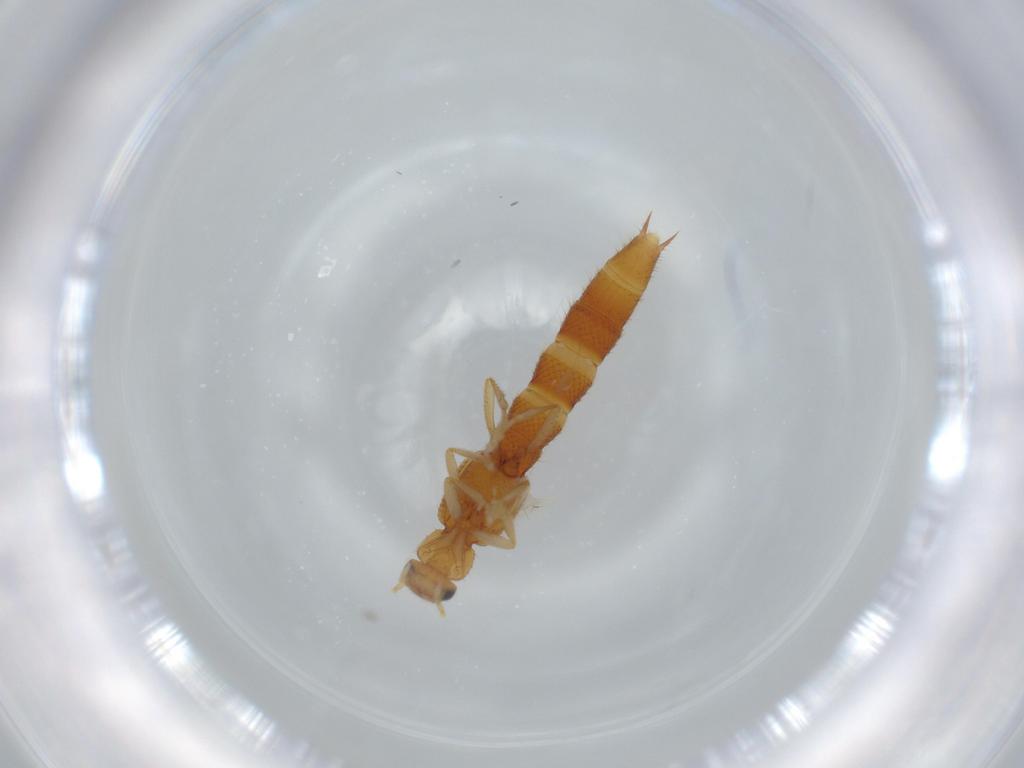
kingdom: Animalia
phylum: Arthropoda
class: Insecta
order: Coleoptera
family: Staphylinidae
